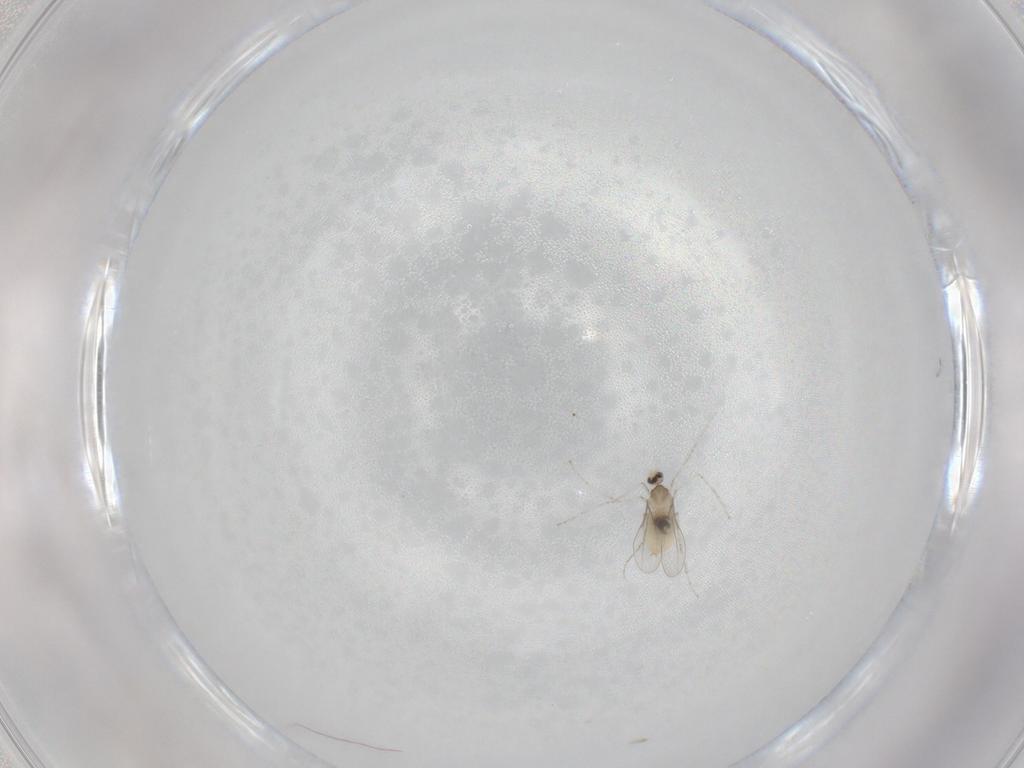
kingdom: Animalia
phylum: Arthropoda
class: Insecta
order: Diptera
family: Cecidomyiidae
